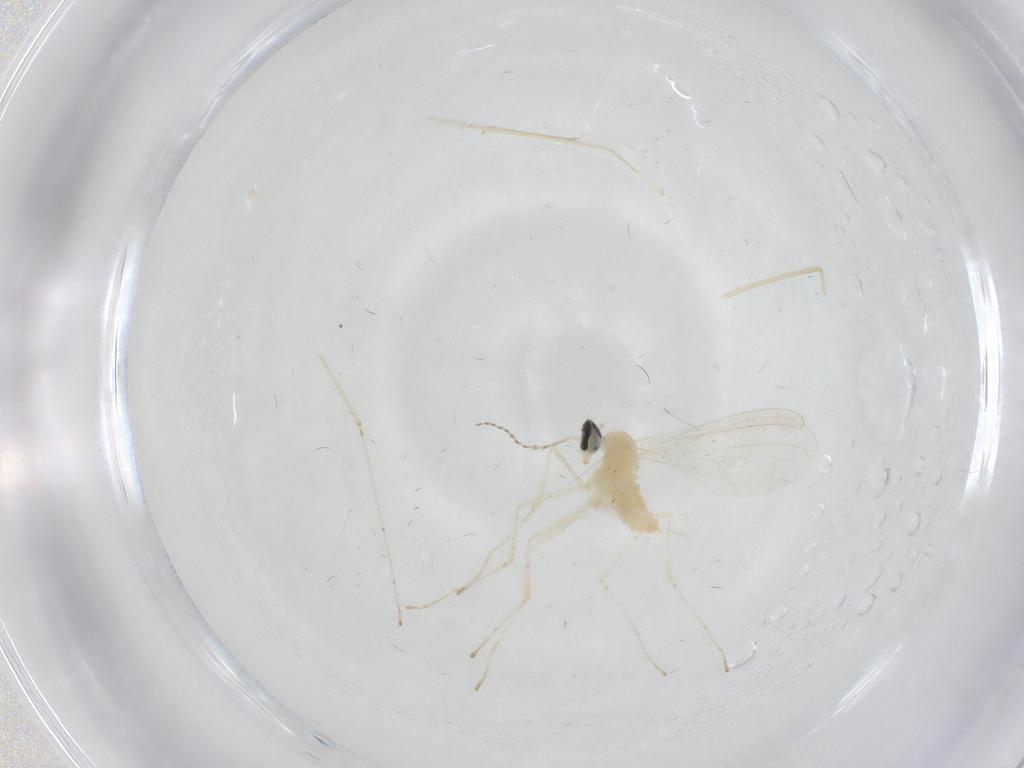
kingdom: Animalia
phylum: Arthropoda
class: Insecta
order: Diptera
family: Cecidomyiidae
